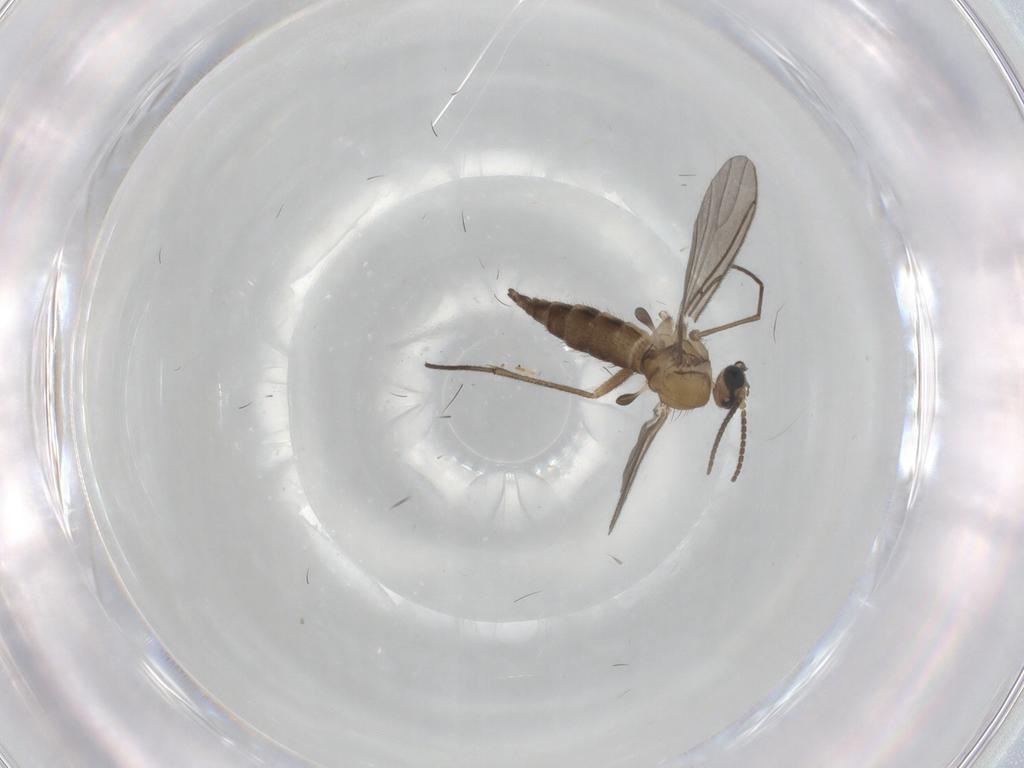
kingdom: Animalia
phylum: Arthropoda
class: Insecta
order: Diptera
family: Sciaridae
